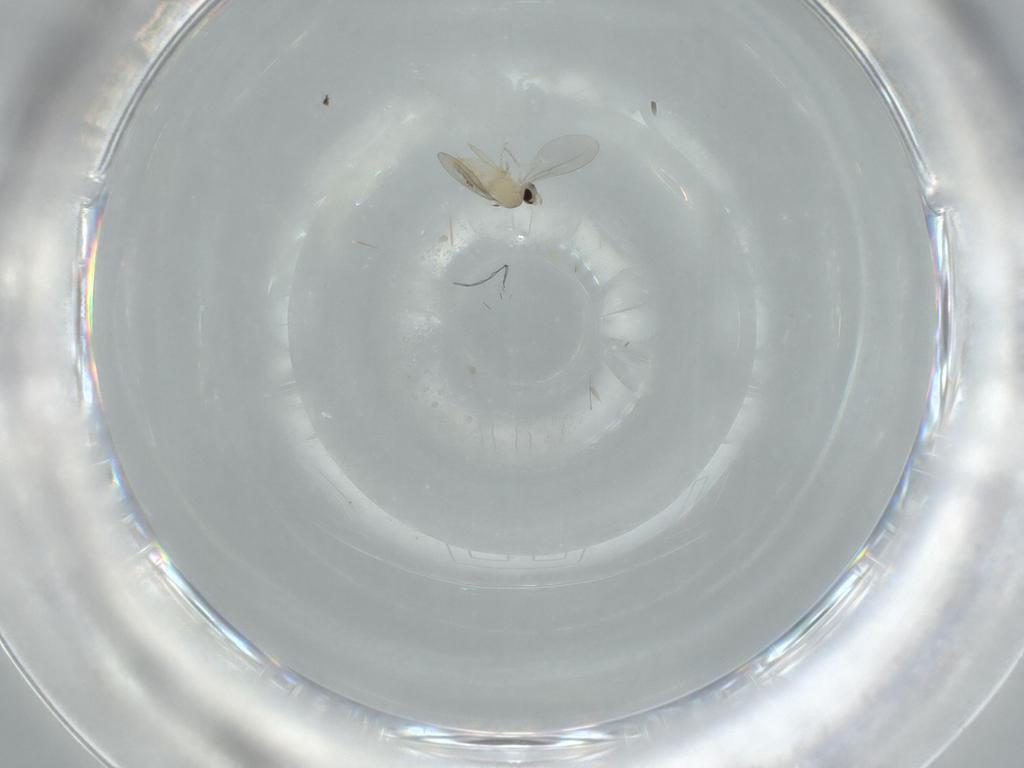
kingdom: Animalia
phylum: Arthropoda
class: Insecta
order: Diptera
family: Cecidomyiidae
